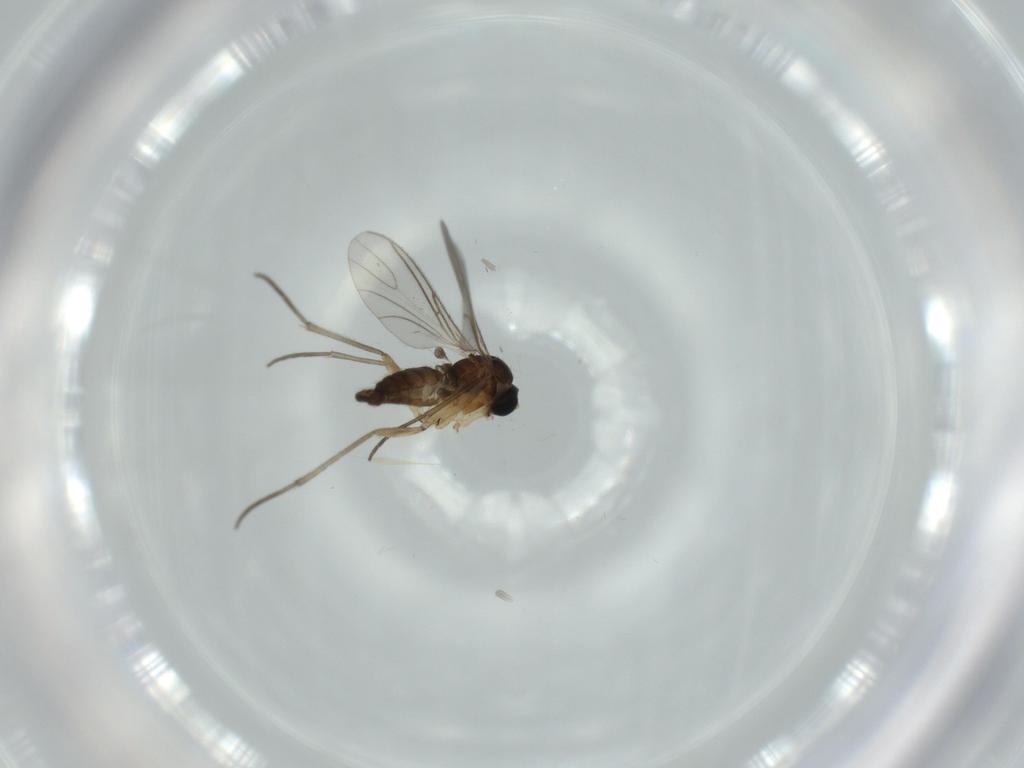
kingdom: Animalia
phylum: Arthropoda
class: Insecta
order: Diptera
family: Sciaridae
